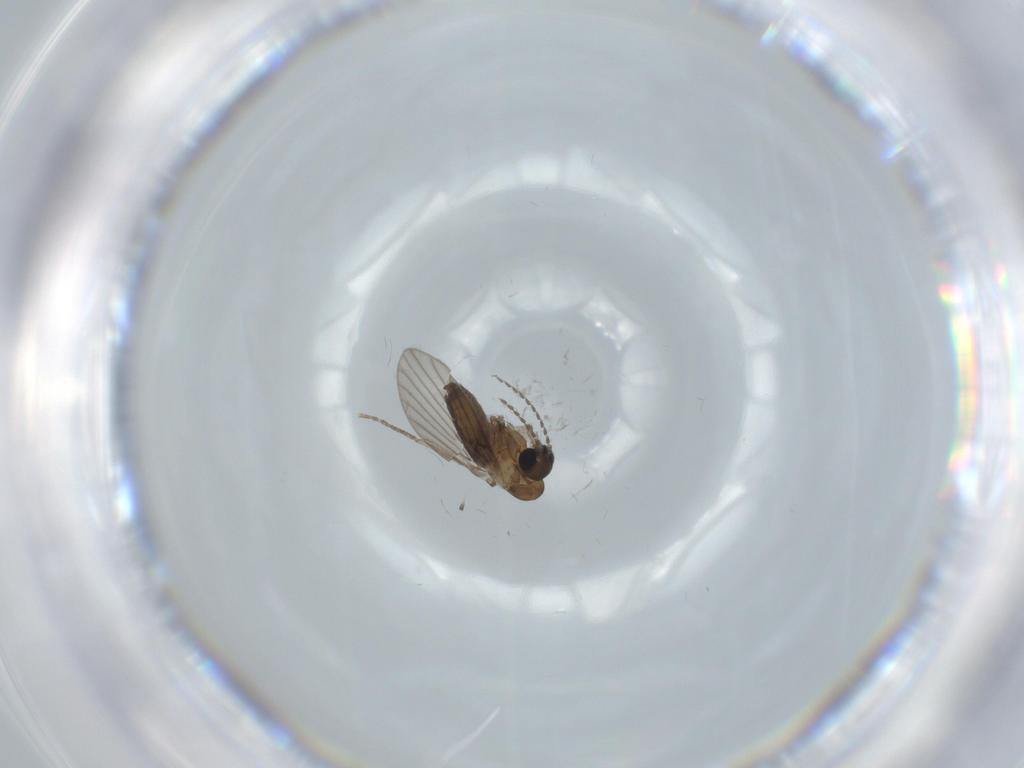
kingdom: Animalia
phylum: Arthropoda
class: Insecta
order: Diptera
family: Psychodidae
